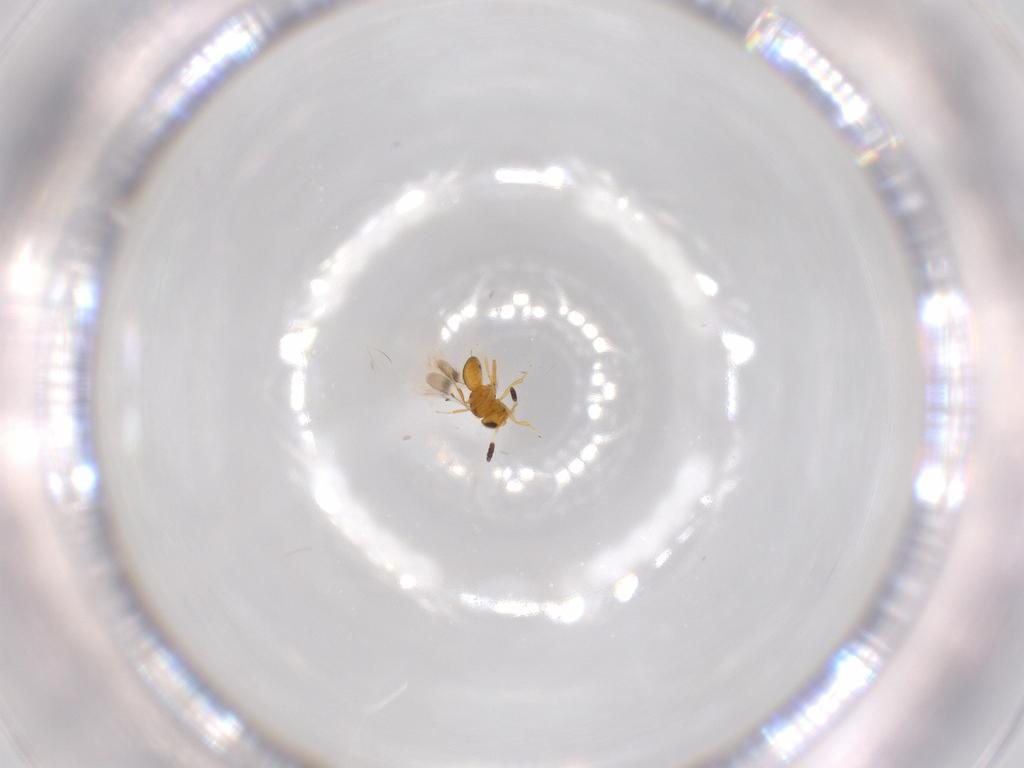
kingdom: Animalia
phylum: Arthropoda
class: Insecta
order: Hymenoptera
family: Scelionidae
